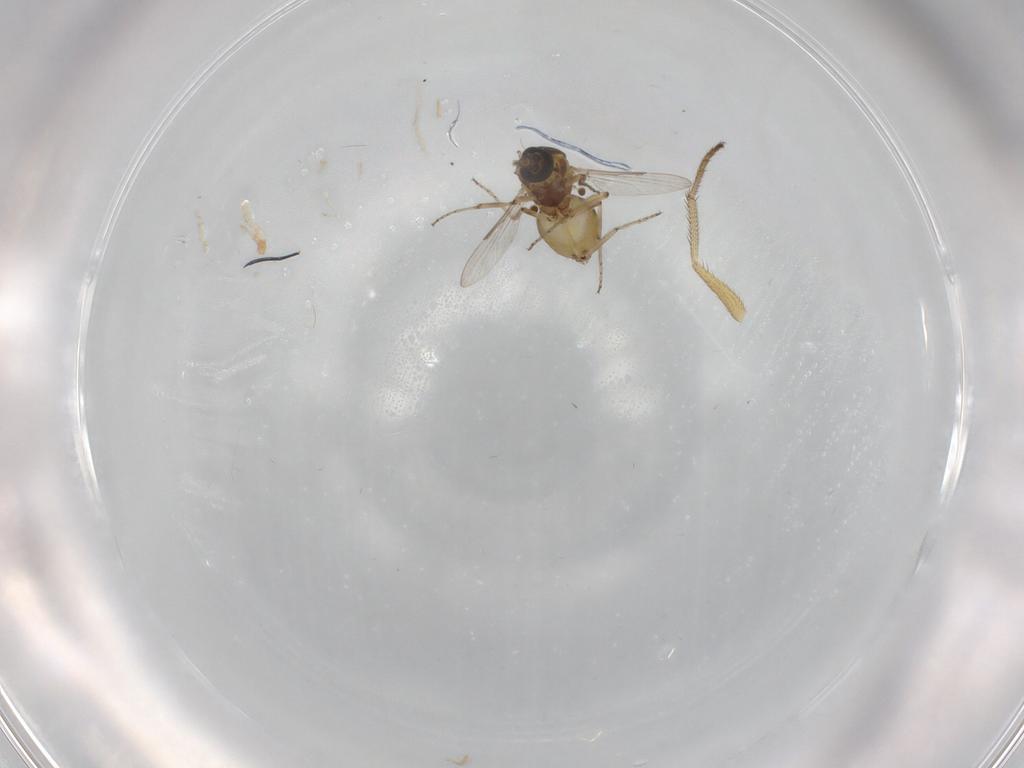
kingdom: Animalia
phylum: Arthropoda
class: Insecta
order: Diptera
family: Ceratopogonidae
